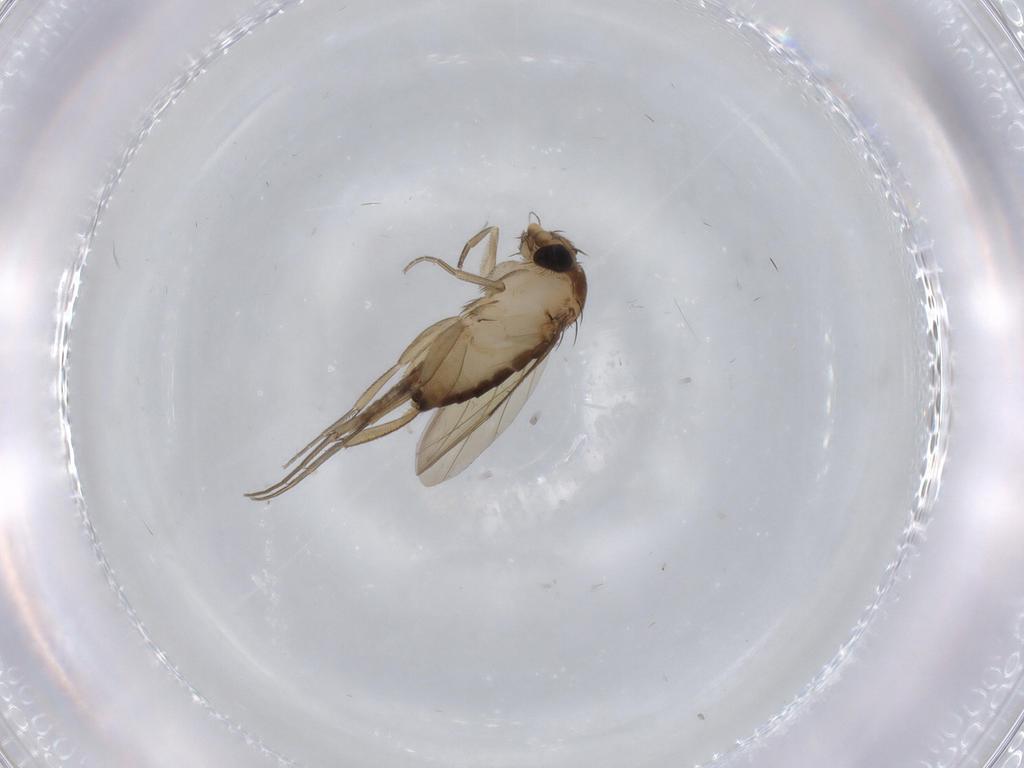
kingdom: Animalia
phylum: Arthropoda
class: Insecta
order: Diptera
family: Phoridae
